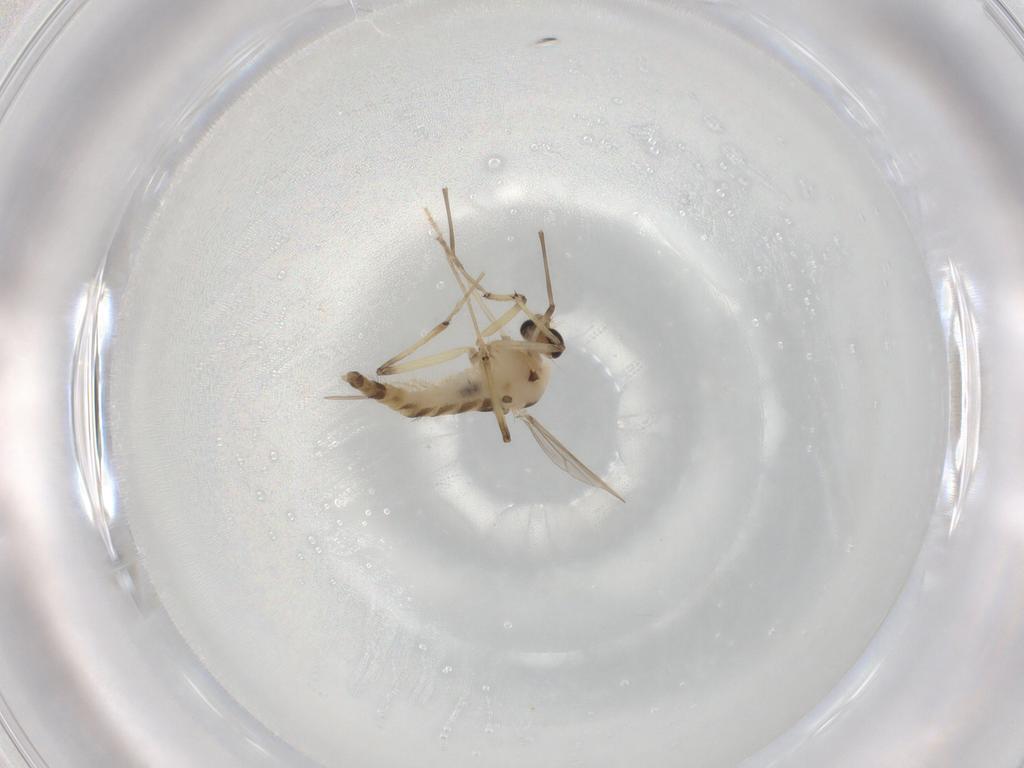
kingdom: Animalia
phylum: Arthropoda
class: Insecta
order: Diptera
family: Chironomidae
